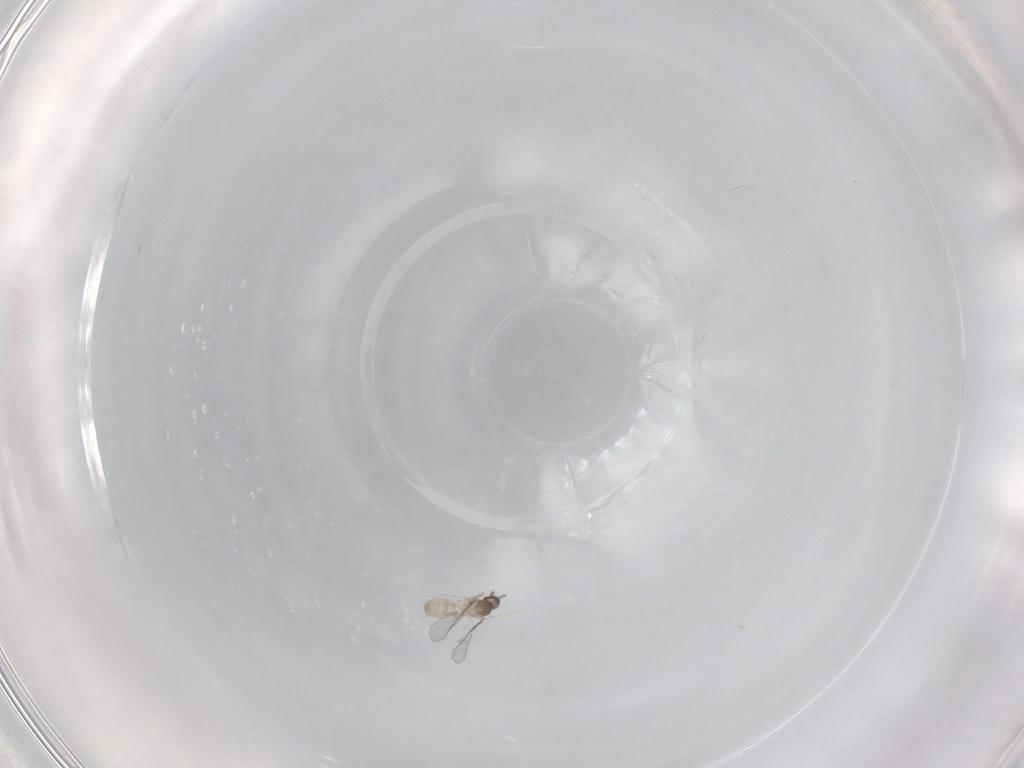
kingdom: Animalia
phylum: Arthropoda
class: Insecta
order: Diptera
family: Cecidomyiidae
